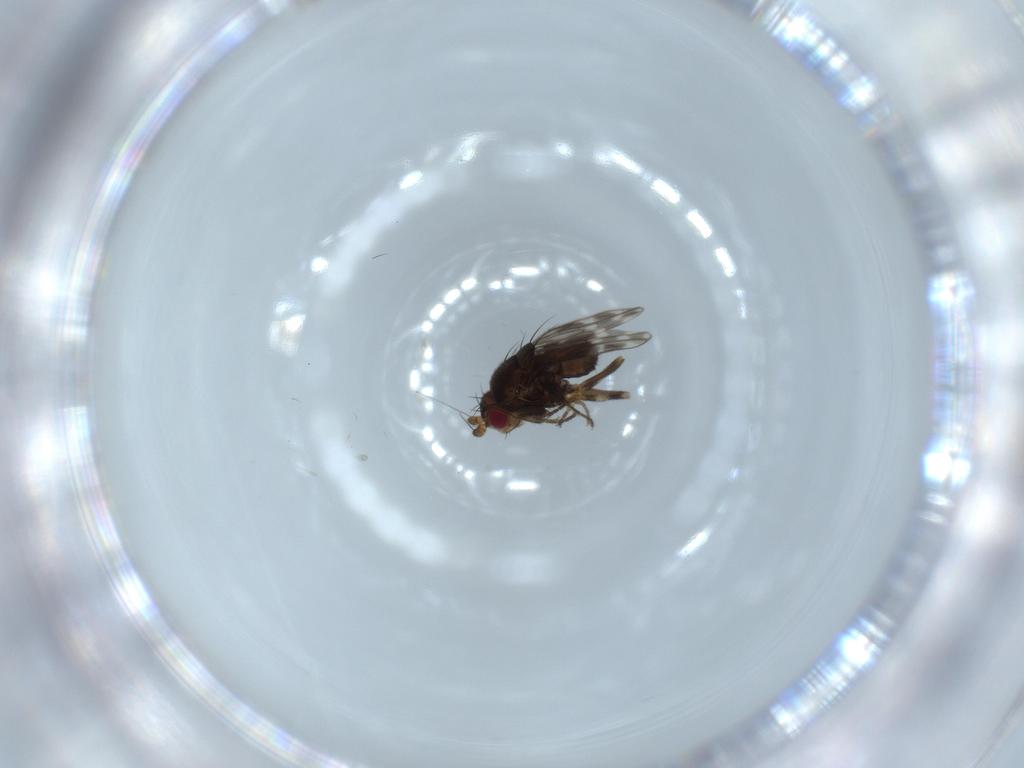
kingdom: Animalia
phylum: Arthropoda
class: Insecta
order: Diptera
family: Sphaeroceridae
